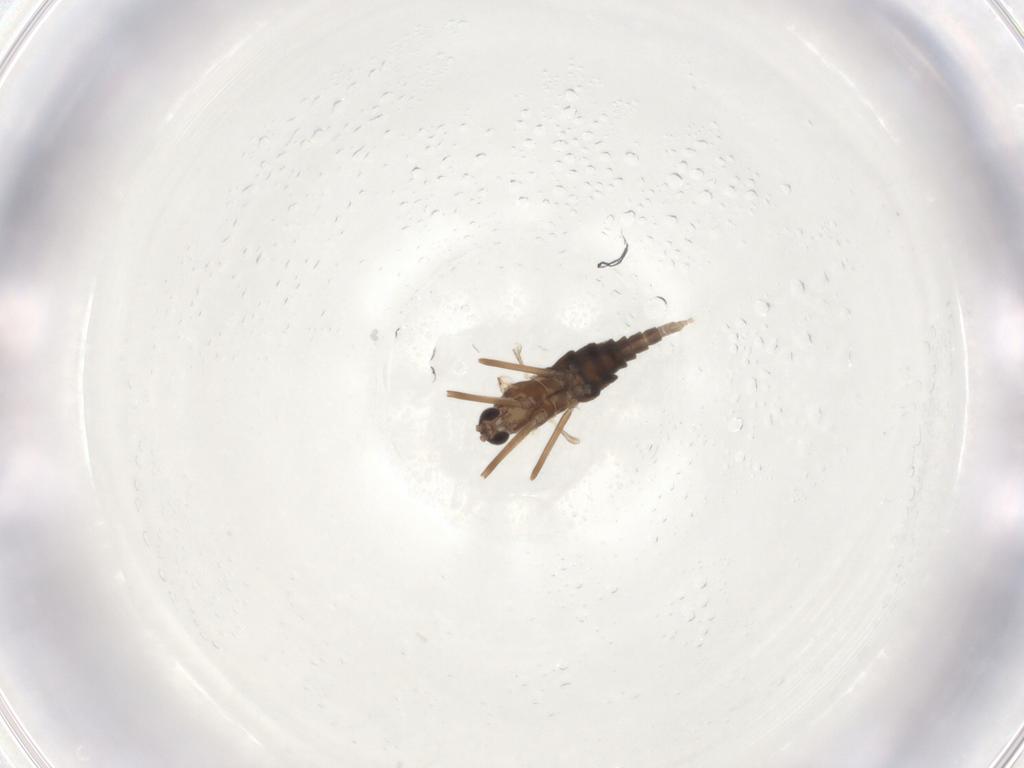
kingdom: Animalia
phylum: Arthropoda
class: Insecta
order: Diptera
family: Cecidomyiidae
